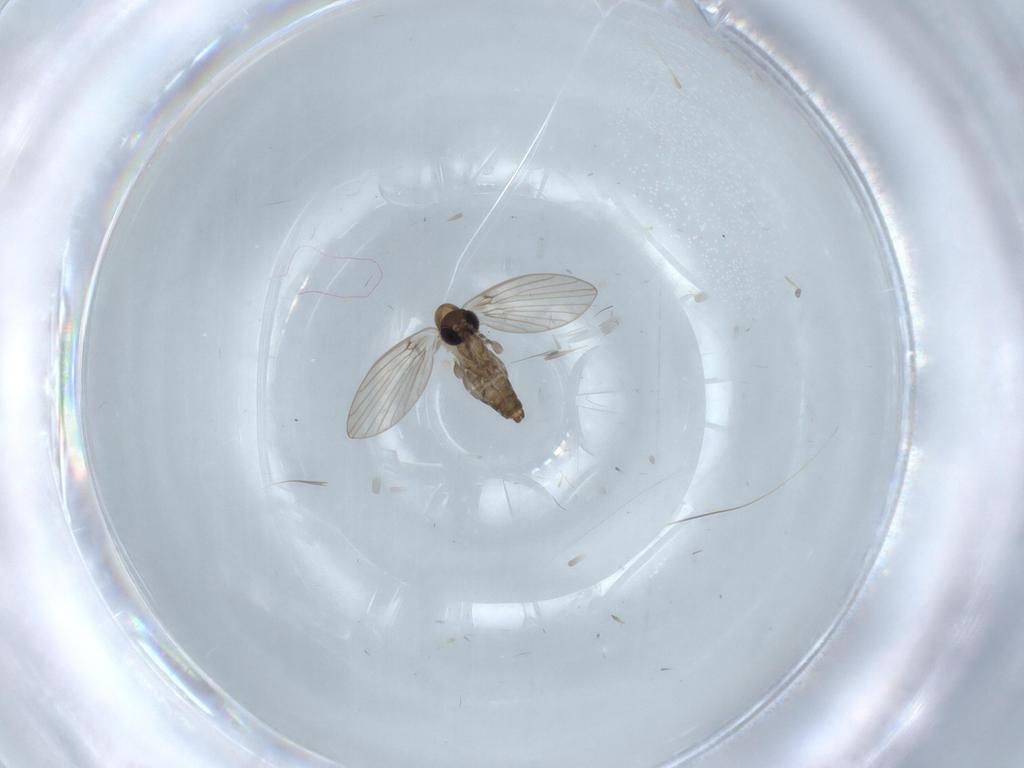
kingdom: Animalia
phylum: Arthropoda
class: Insecta
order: Diptera
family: Psychodidae
